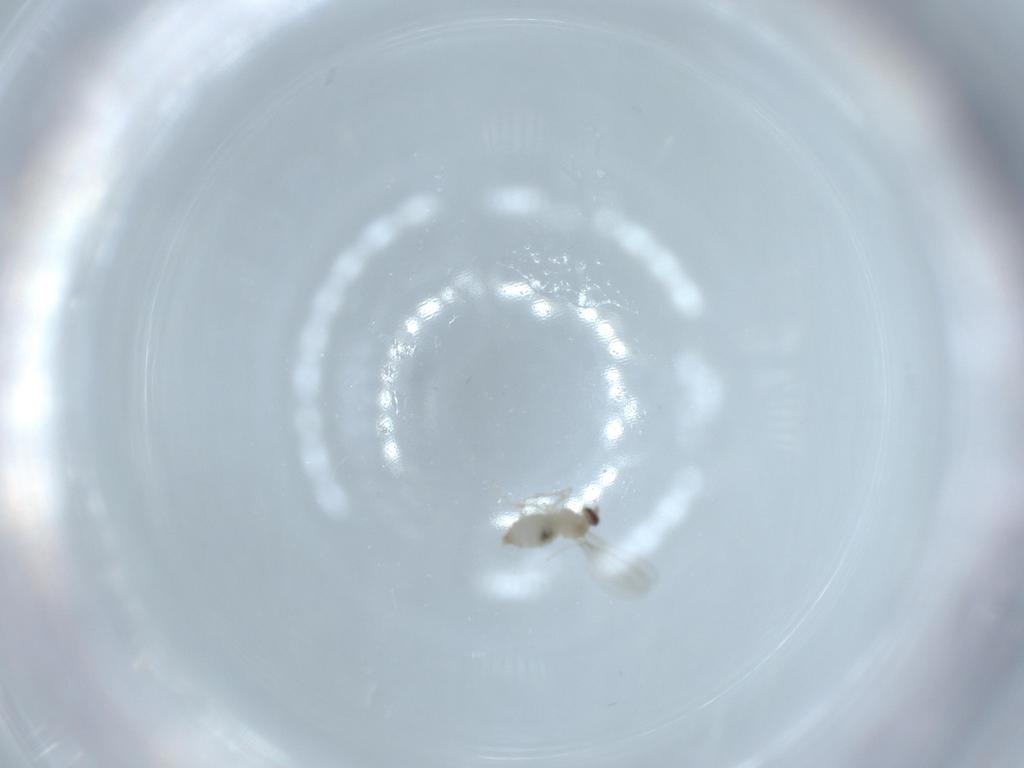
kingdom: Animalia
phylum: Arthropoda
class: Insecta
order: Diptera
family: Cecidomyiidae
